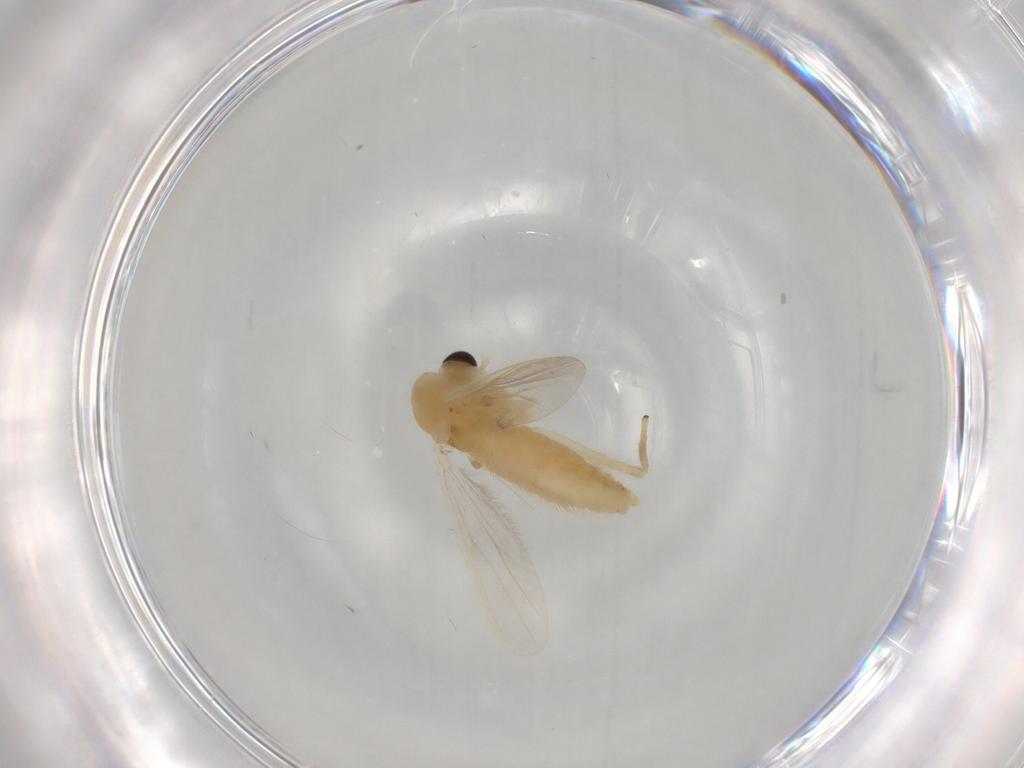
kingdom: Animalia
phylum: Arthropoda
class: Insecta
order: Diptera
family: Chironomidae
